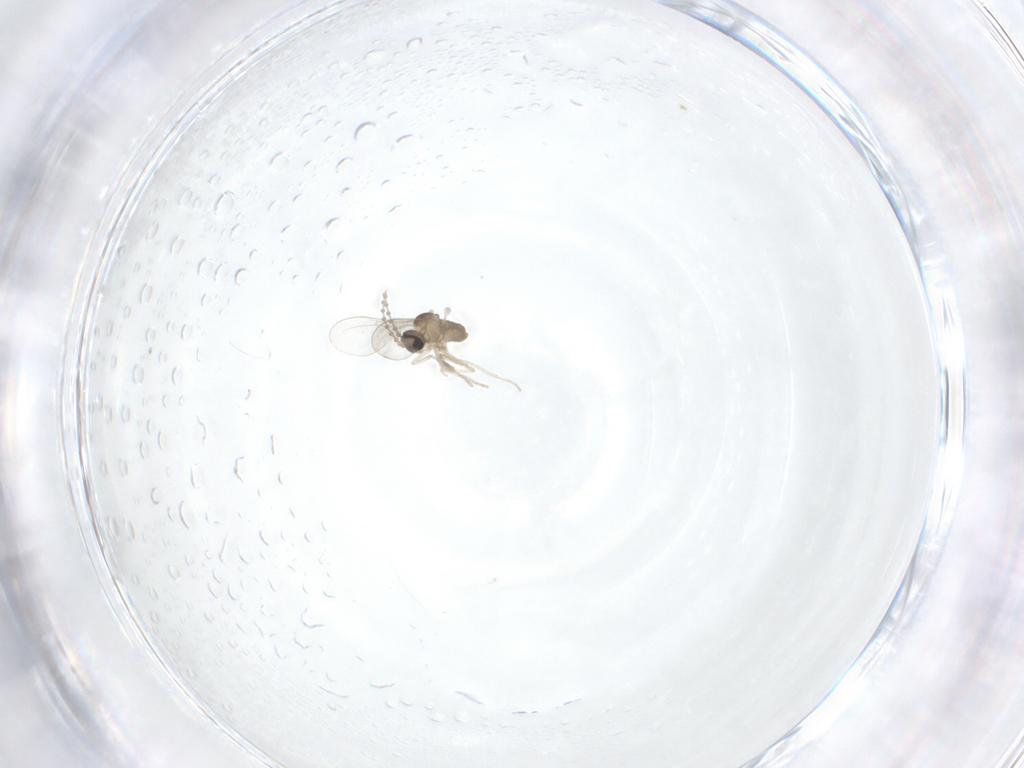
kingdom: Animalia
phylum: Arthropoda
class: Insecta
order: Diptera
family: Cecidomyiidae
